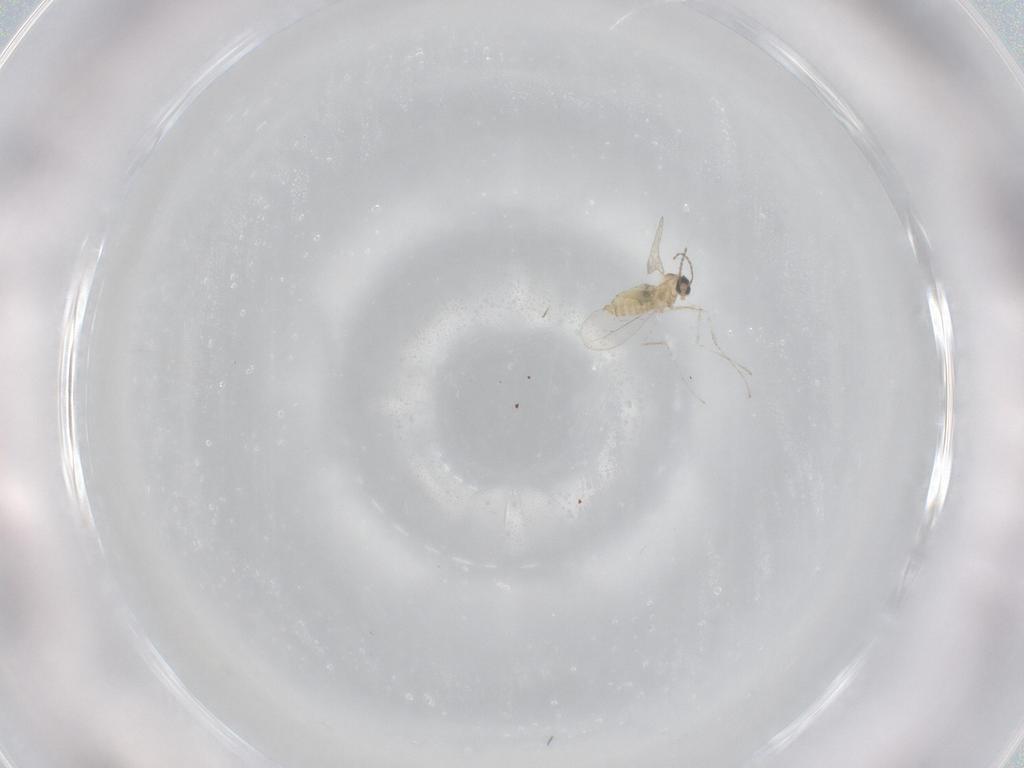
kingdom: Animalia
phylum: Arthropoda
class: Insecta
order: Diptera
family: Cecidomyiidae
